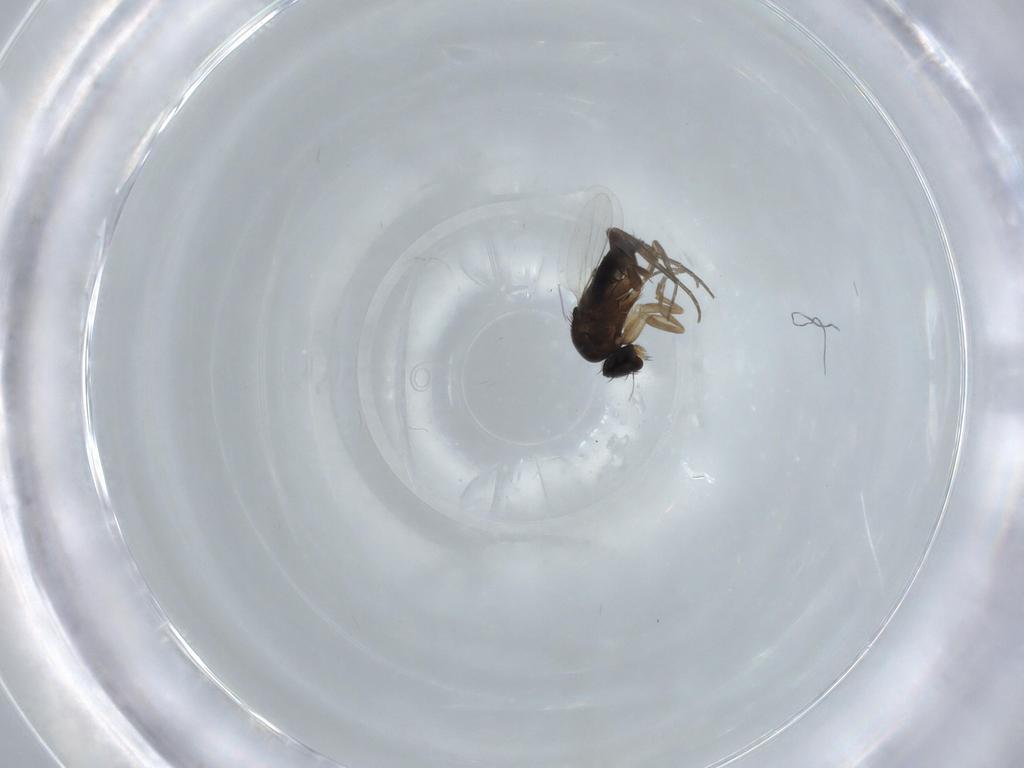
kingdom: Animalia
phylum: Arthropoda
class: Insecta
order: Diptera
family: Phoridae
